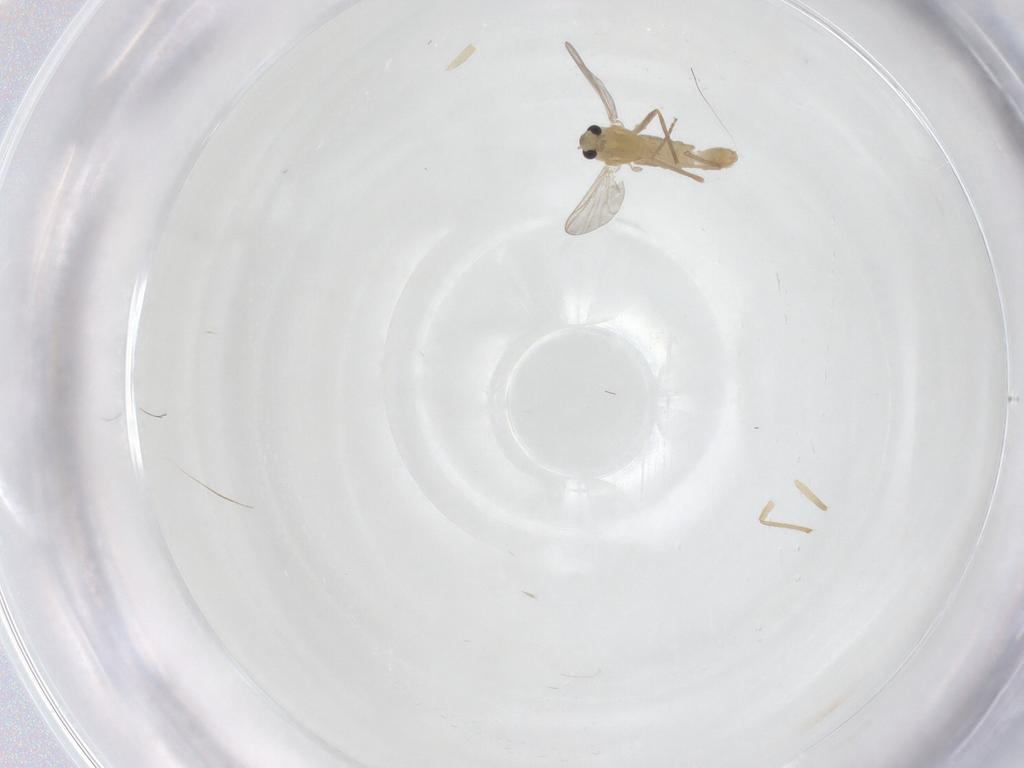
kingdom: Animalia
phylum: Arthropoda
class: Insecta
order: Diptera
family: Chironomidae
